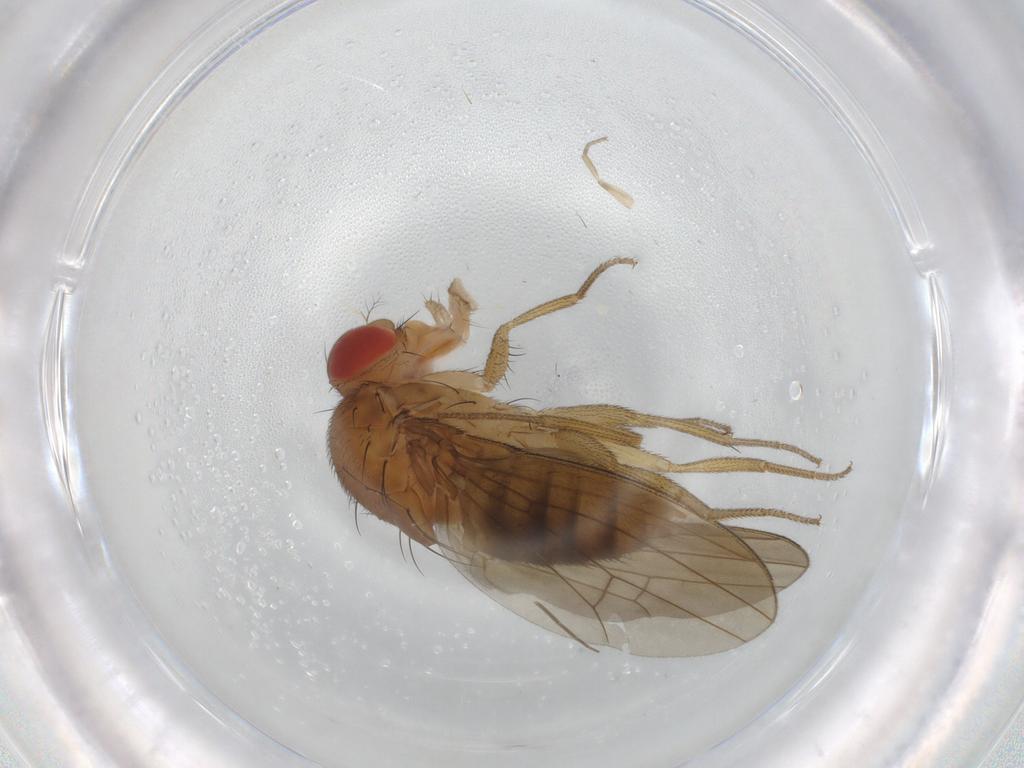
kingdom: Animalia
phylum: Arthropoda
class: Insecta
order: Diptera
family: Drosophilidae
